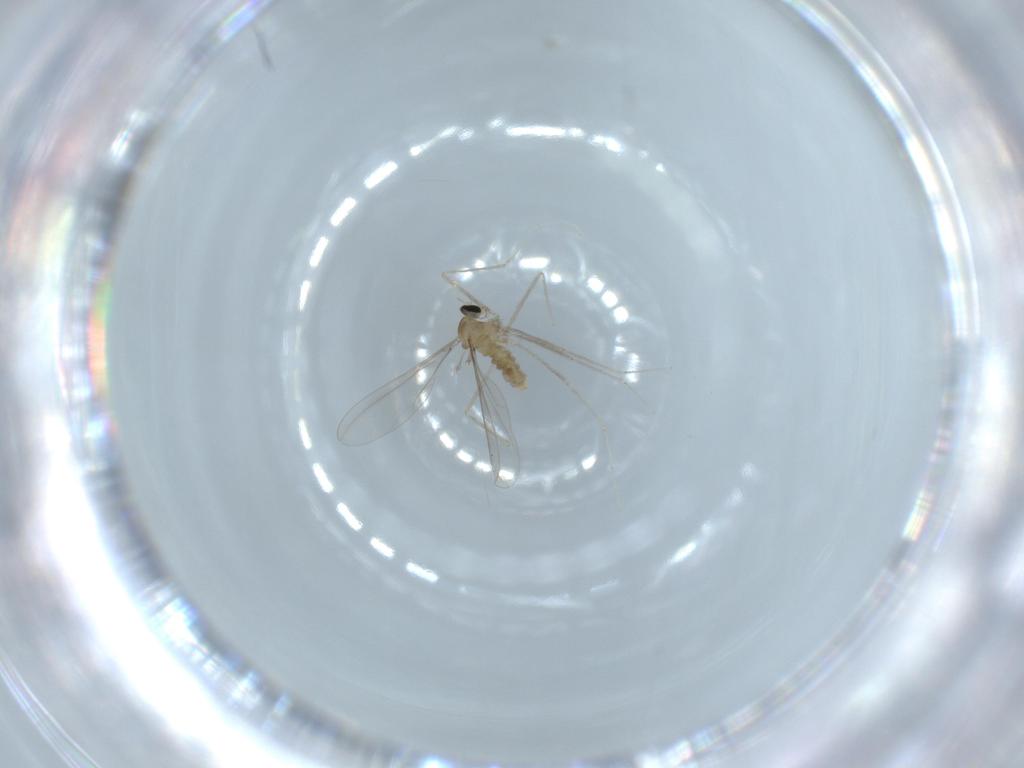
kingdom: Animalia
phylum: Arthropoda
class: Insecta
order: Diptera
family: Cecidomyiidae
